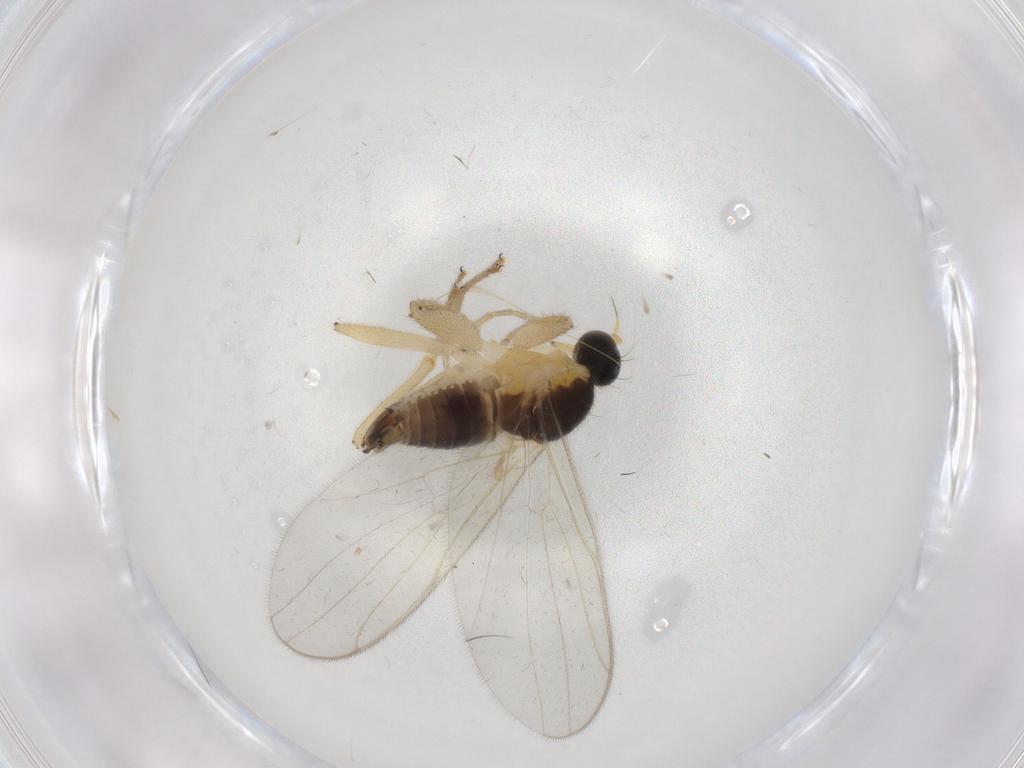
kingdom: Animalia
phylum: Arthropoda
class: Insecta
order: Diptera
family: Hybotidae
